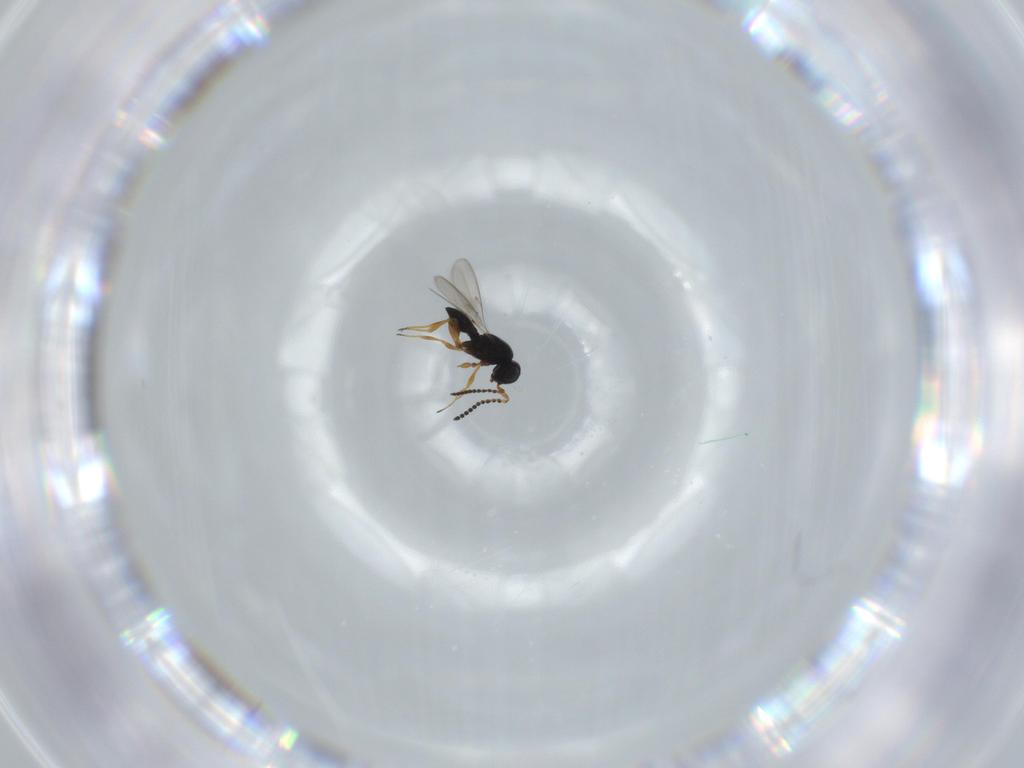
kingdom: Animalia
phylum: Arthropoda
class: Insecta
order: Hymenoptera
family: Scelionidae
